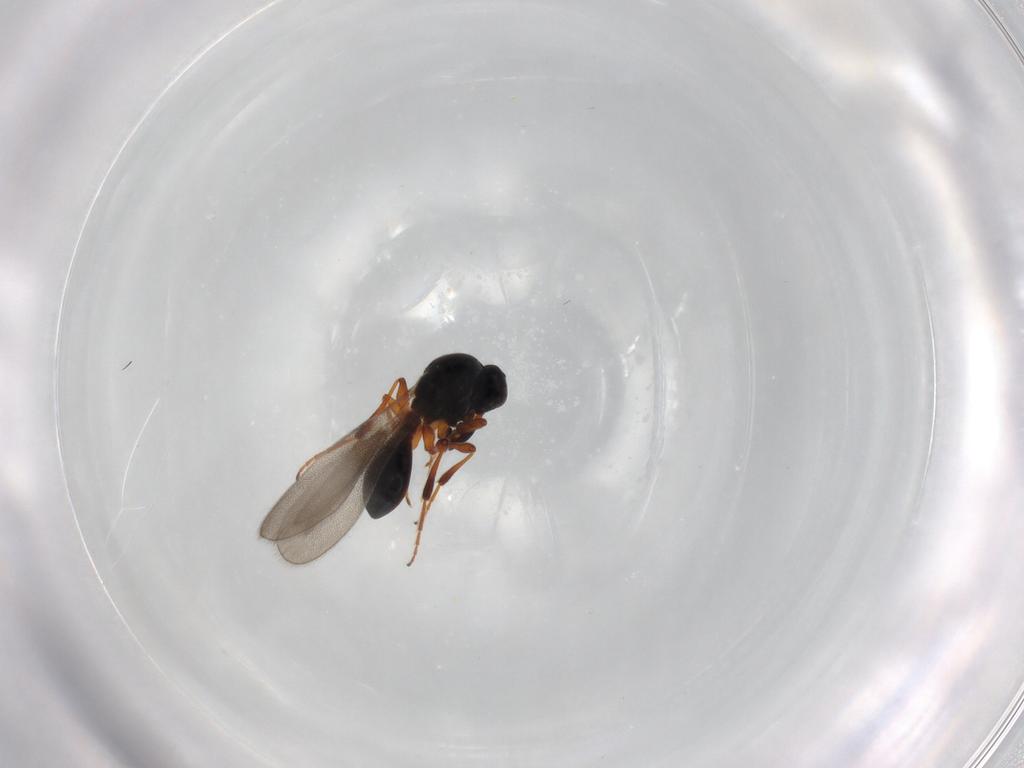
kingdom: Animalia
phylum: Arthropoda
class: Insecta
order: Hymenoptera
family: Platygastridae
